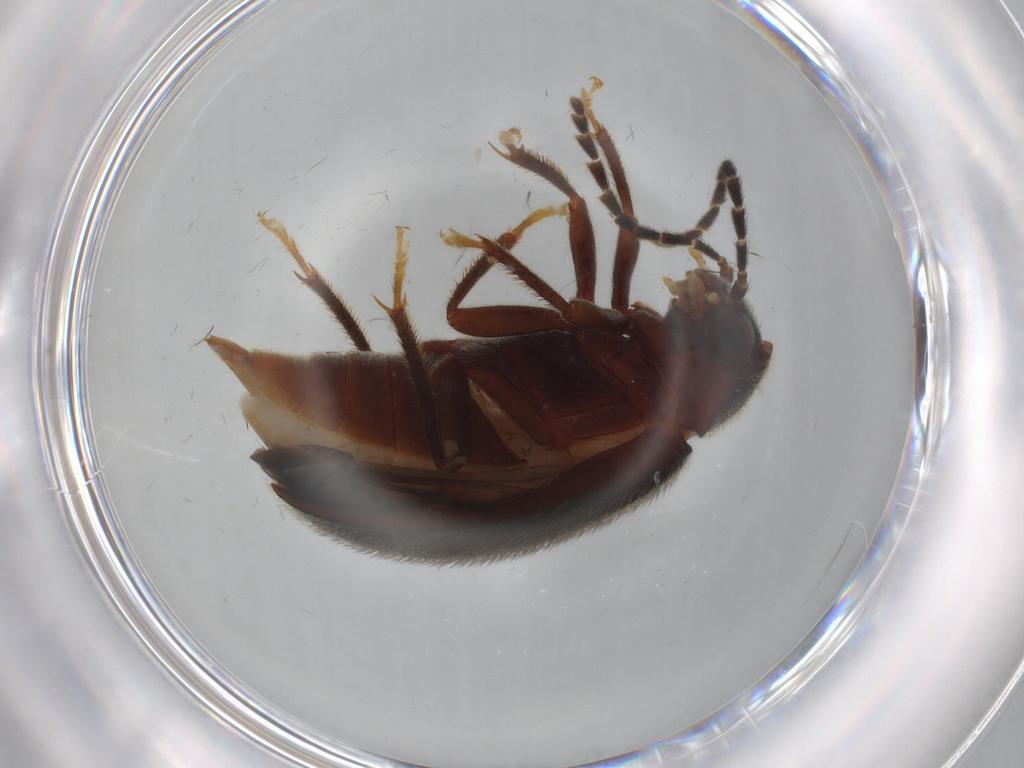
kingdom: Animalia
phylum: Arthropoda
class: Insecta
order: Coleoptera
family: Ptilodactylidae
